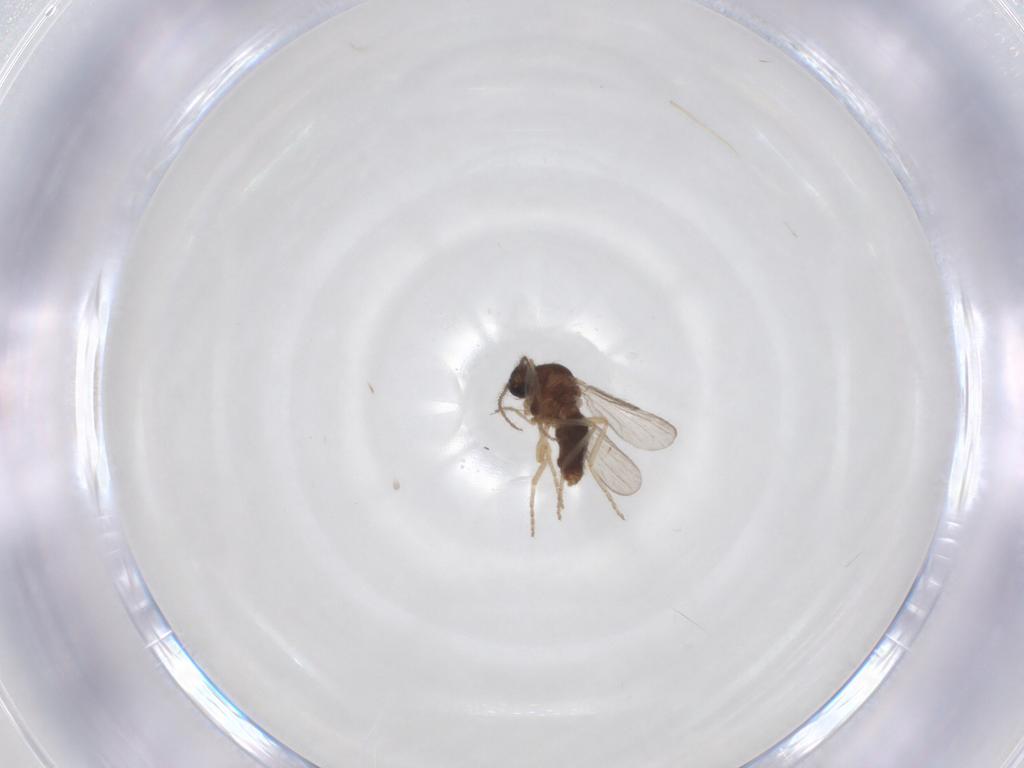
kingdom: Animalia
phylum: Arthropoda
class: Insecta
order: Diptera
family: Ceratopogonidae
